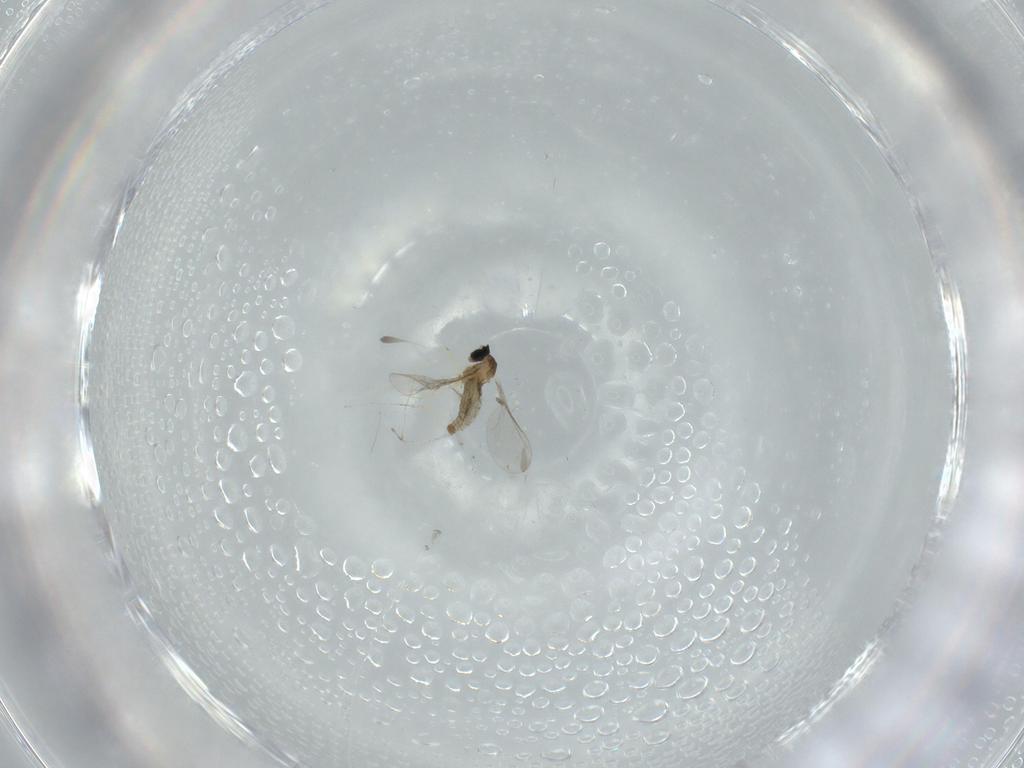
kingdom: Animalia
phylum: Arthropoda
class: Insecta
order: Diptera
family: Cecidomyiidae
